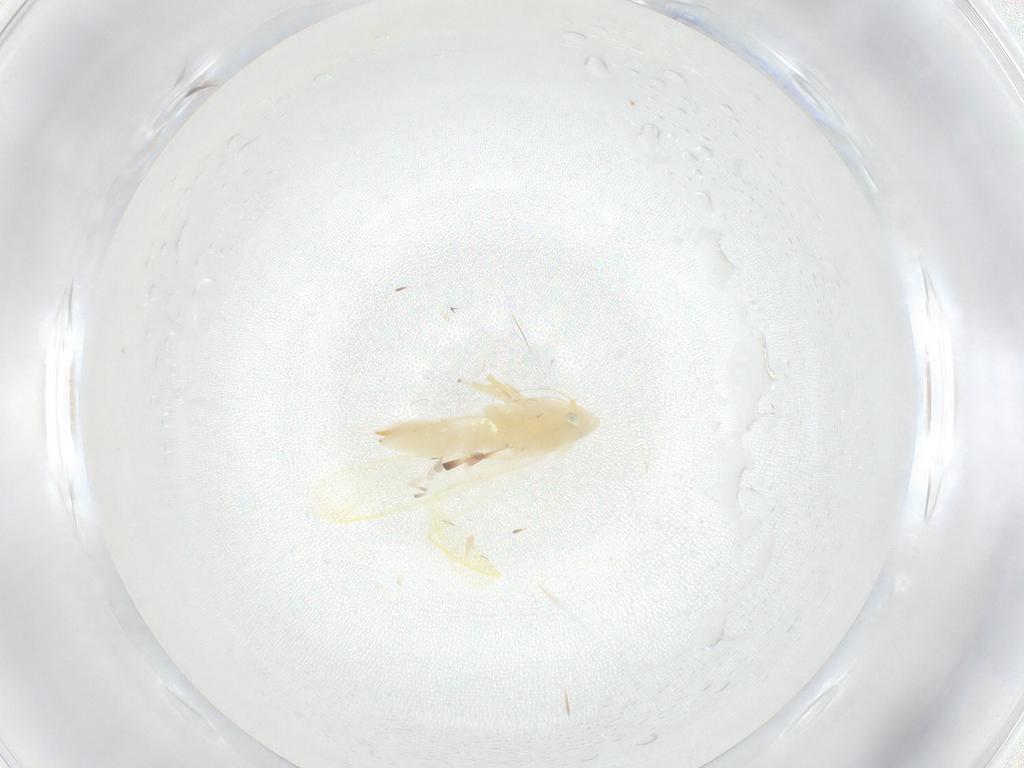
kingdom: Animalia
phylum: Arthropoda
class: Insecta
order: Hemiptera
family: Cicadellidae
